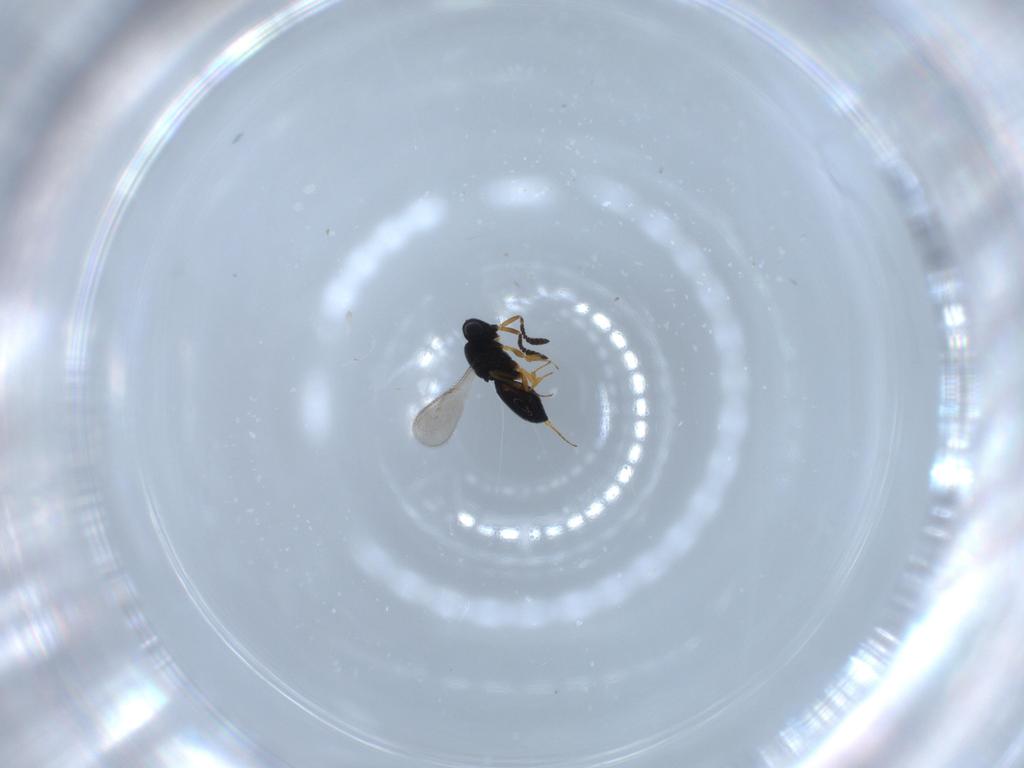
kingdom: Animalia
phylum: Arthropoda
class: Insecta
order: Hymenoptera
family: Scelionidae
